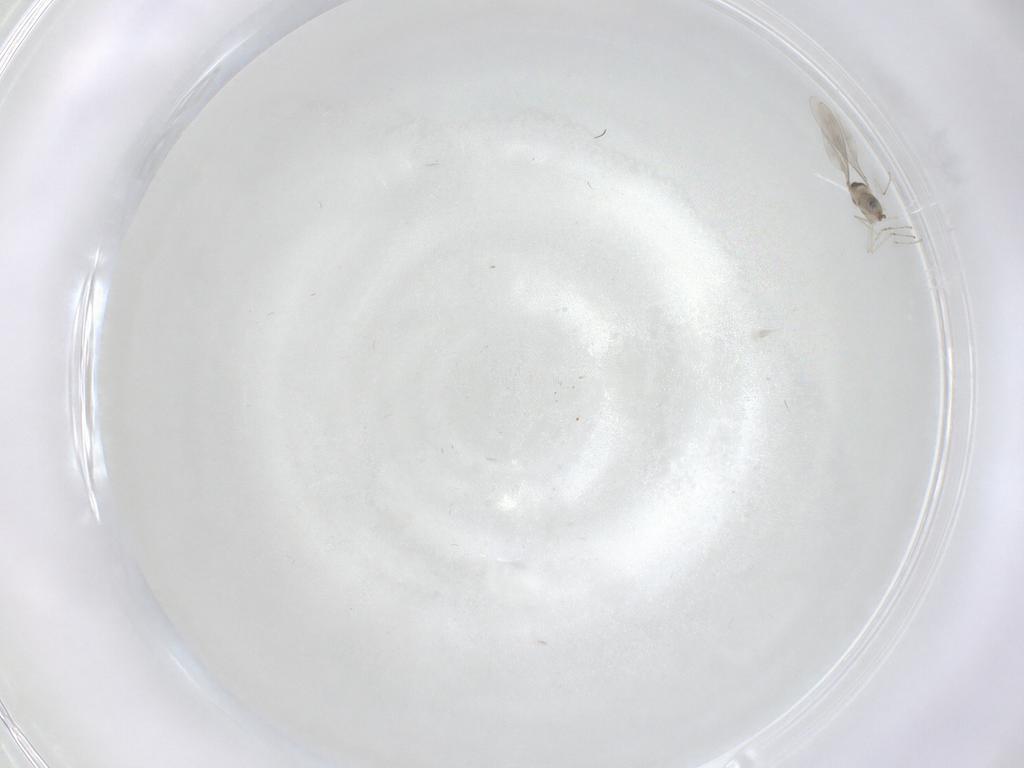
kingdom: Animalia
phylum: Arthropoda
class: Insecta
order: Diptera
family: Cecidomyiidae
